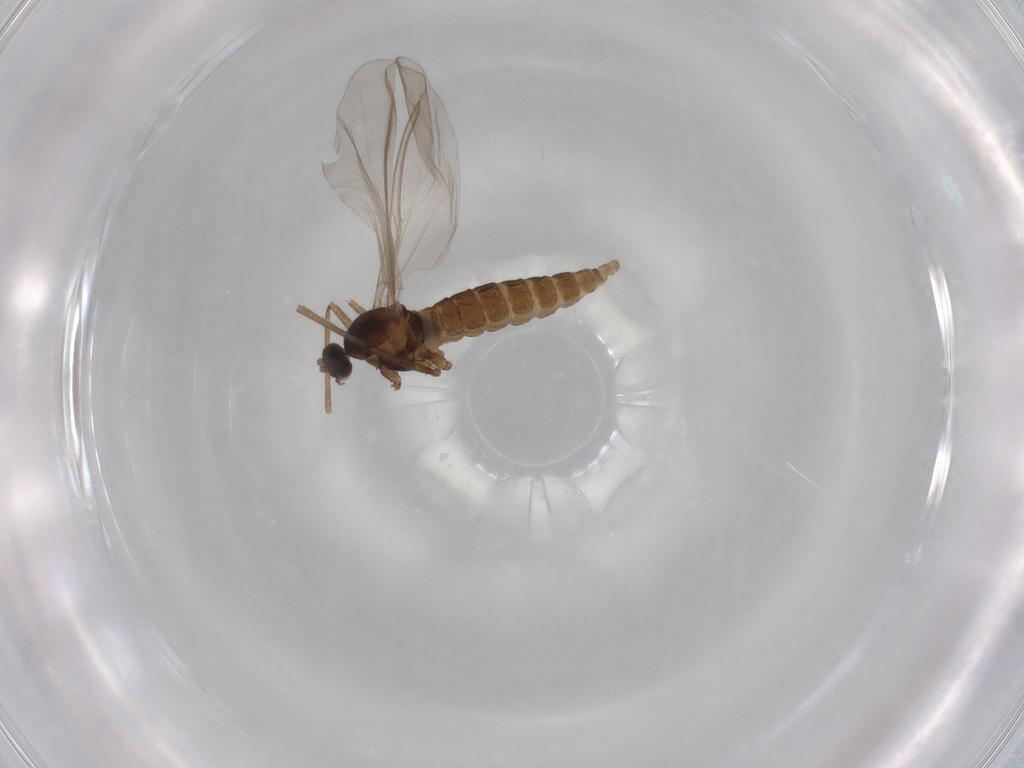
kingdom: Animalia
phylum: Arthropoda
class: Insecta
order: Diptera
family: Cecidomyiidae
